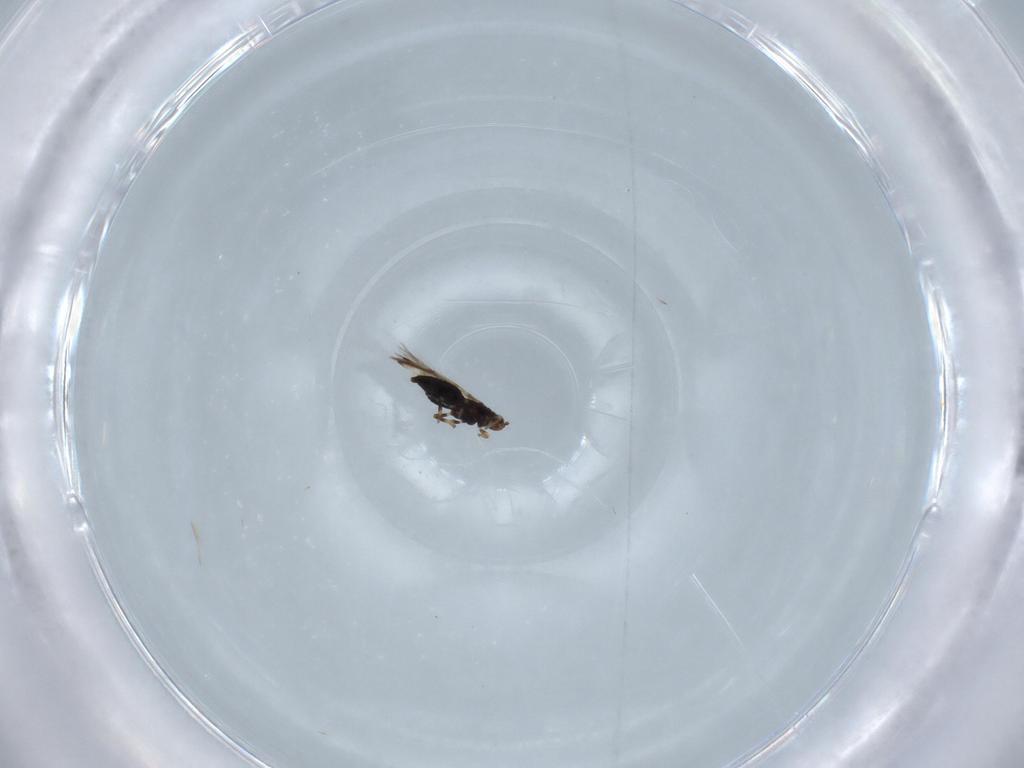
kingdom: Animalia
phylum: Arthropoda
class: Insecta
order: Thysanoptera
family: Thripidae
